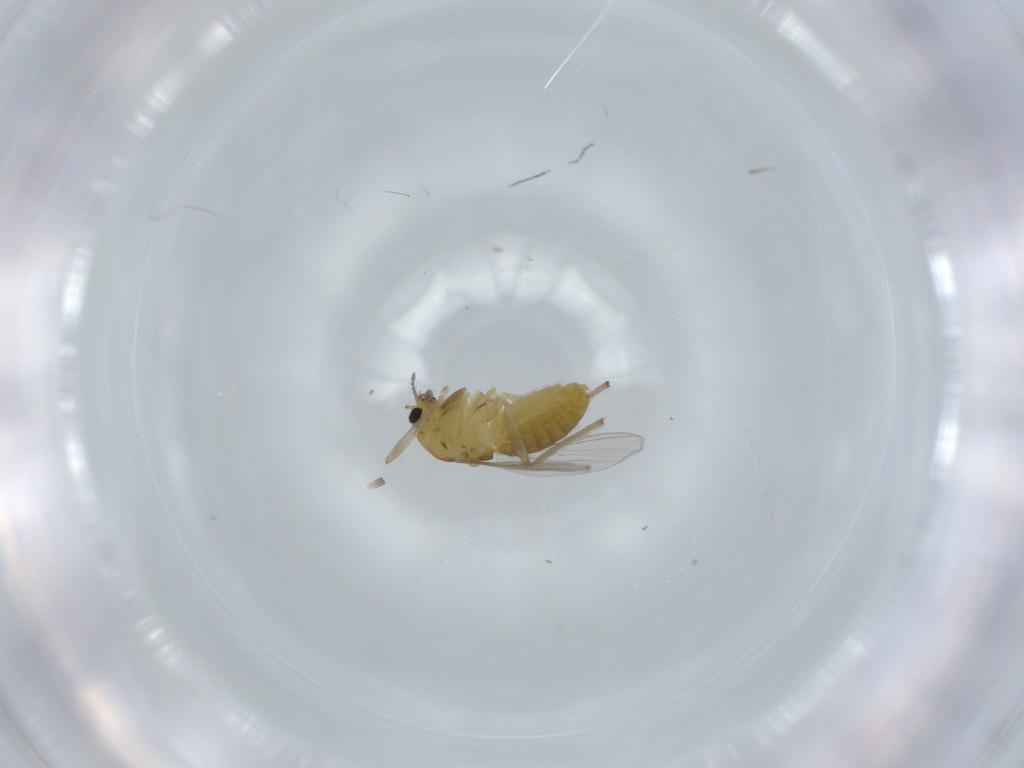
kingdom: Animalia
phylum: Arthropoda
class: Insecta
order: Diptera
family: Chironomidae
